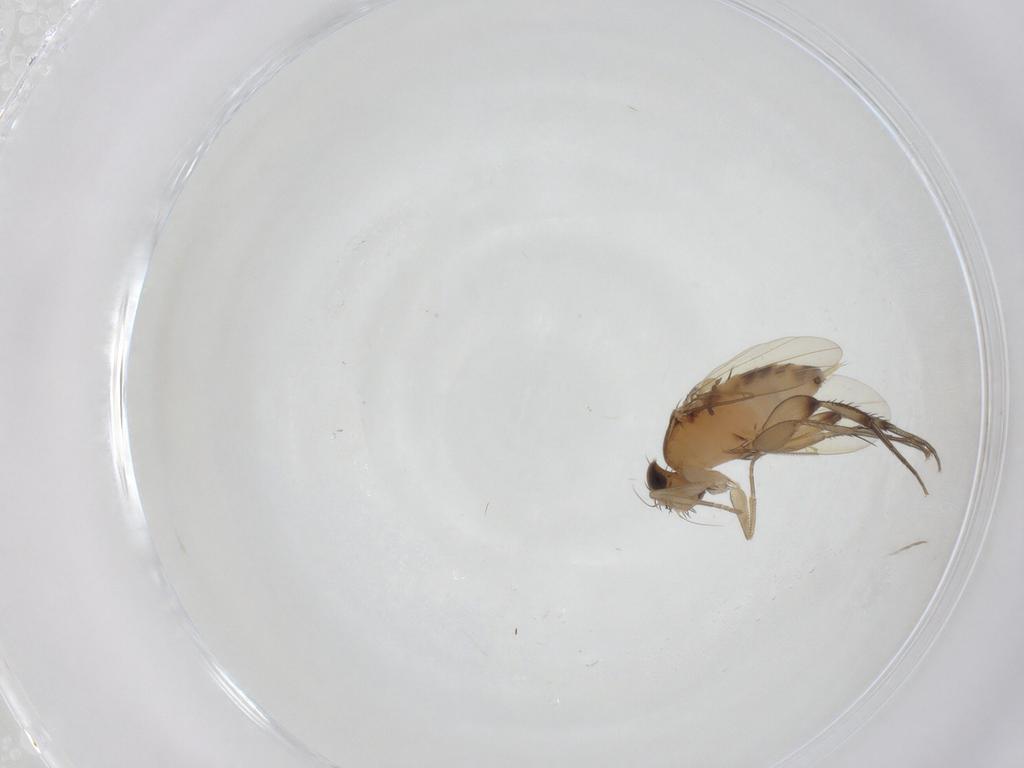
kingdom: Animalia
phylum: Arthropoda
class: Insecta
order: Diptera
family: Phoridae
